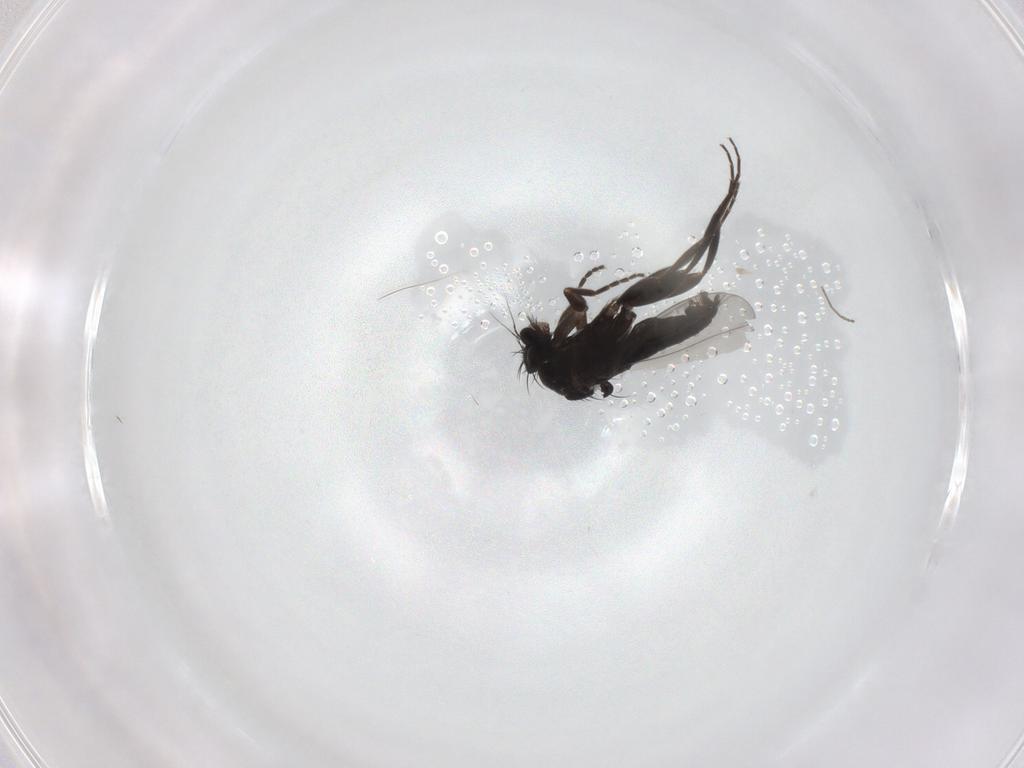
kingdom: Animalia
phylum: Arthropoda
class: Insecta
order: Diptera
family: Phoridae
